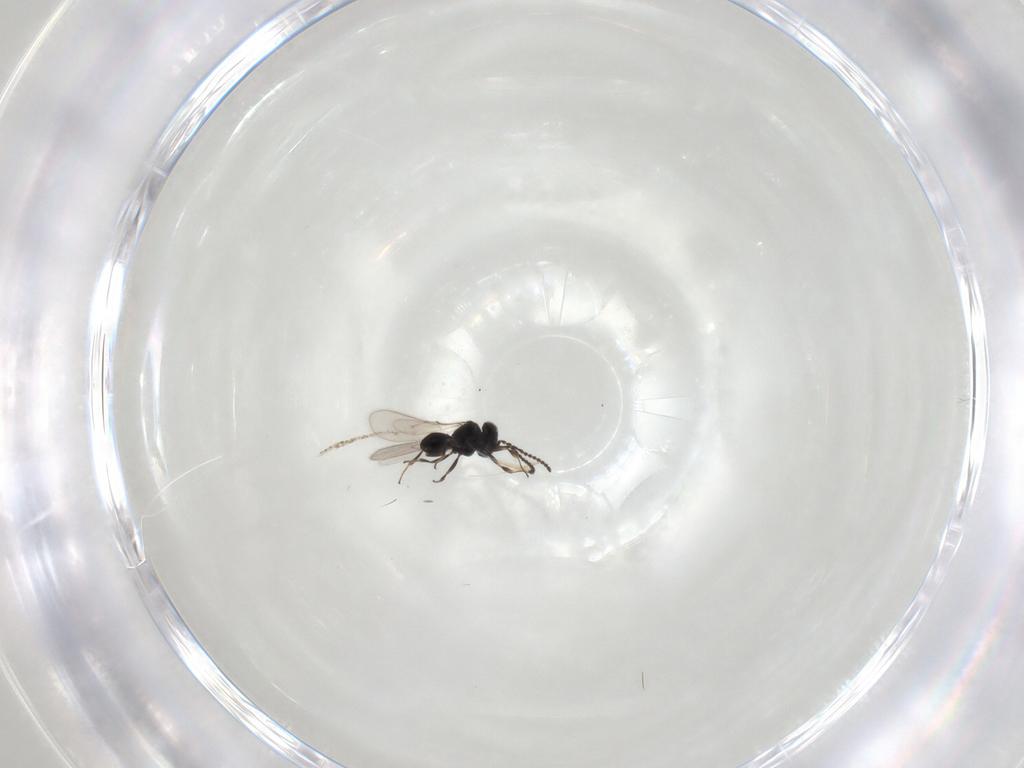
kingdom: Animalia
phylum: Arthropoda
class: Insecta
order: Hymenoptera
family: Scelionidae
